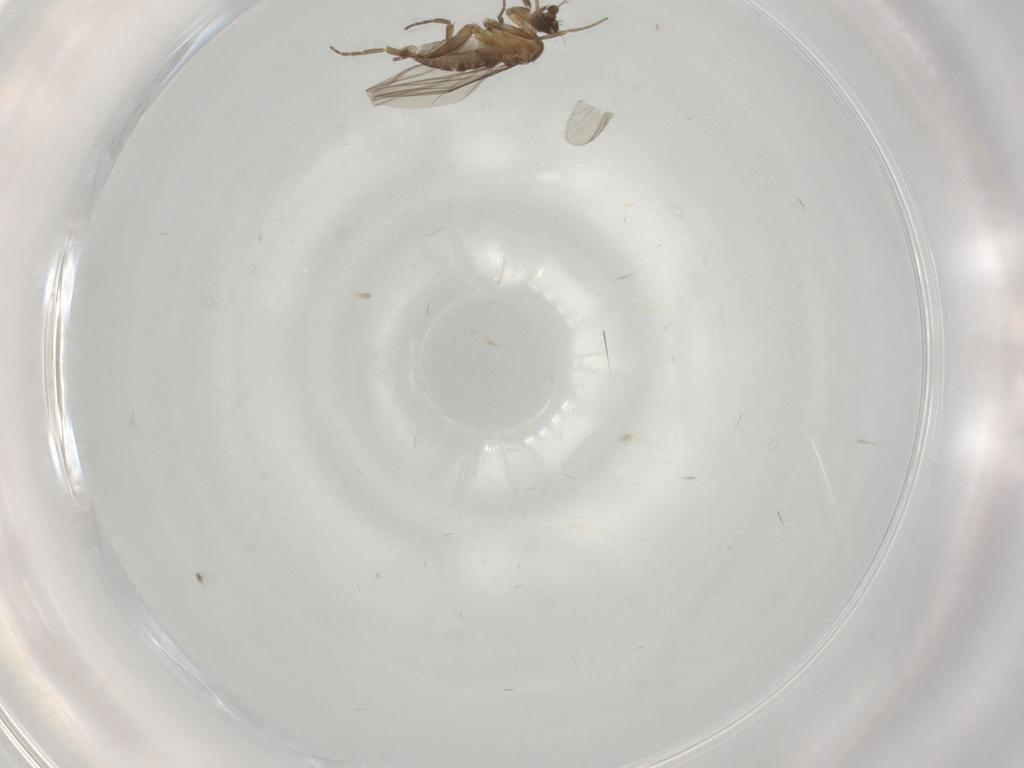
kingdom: Animalia
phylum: Arthropoda
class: Insecta
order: Diptera
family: Phoridae
